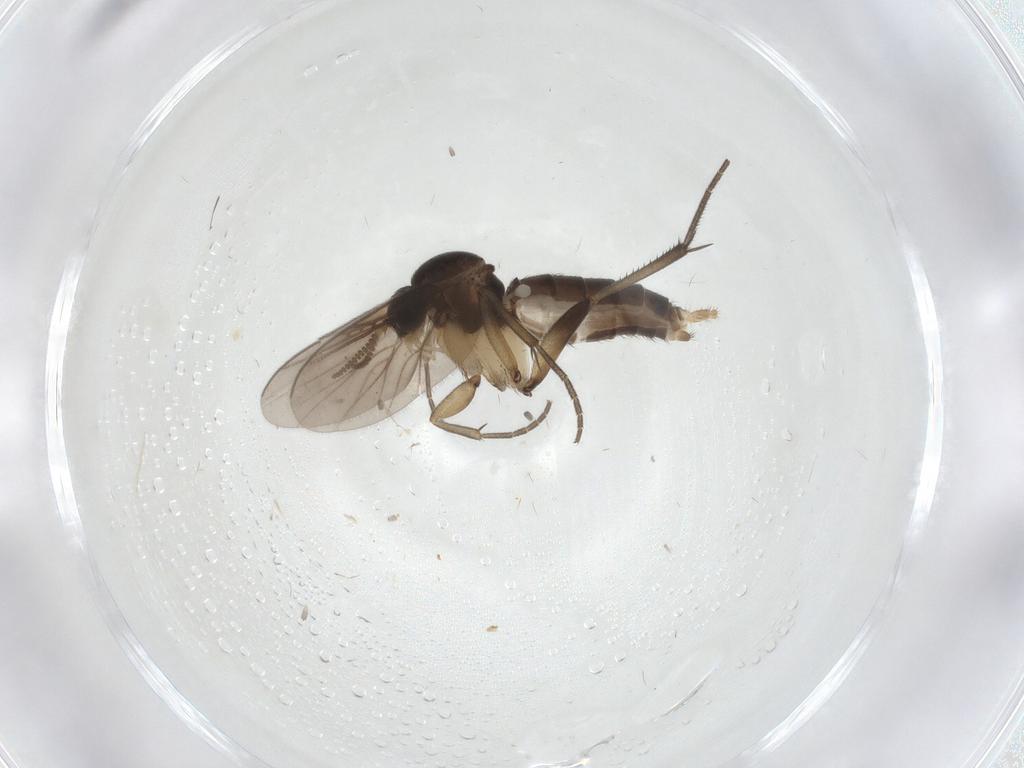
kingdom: Animalia
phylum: Arthropoda
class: Insecta
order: Diptera
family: Cecidomyiidae
